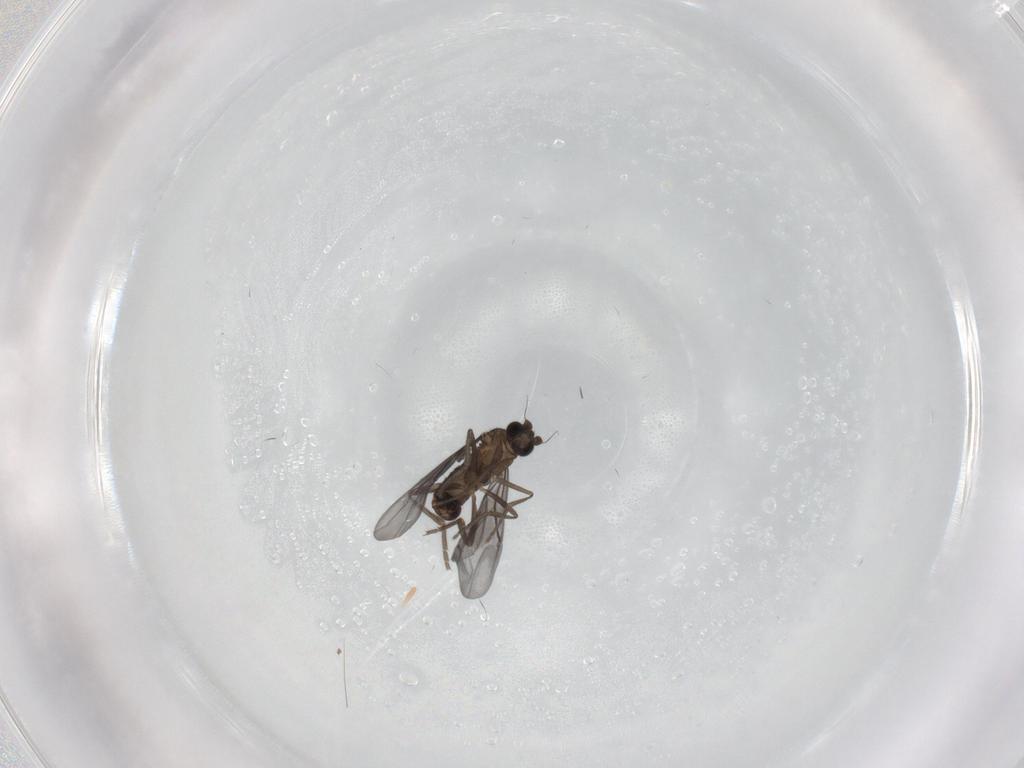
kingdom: Animalia
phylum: Arthropoda
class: Insecta
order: Diptera
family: Phoridae
